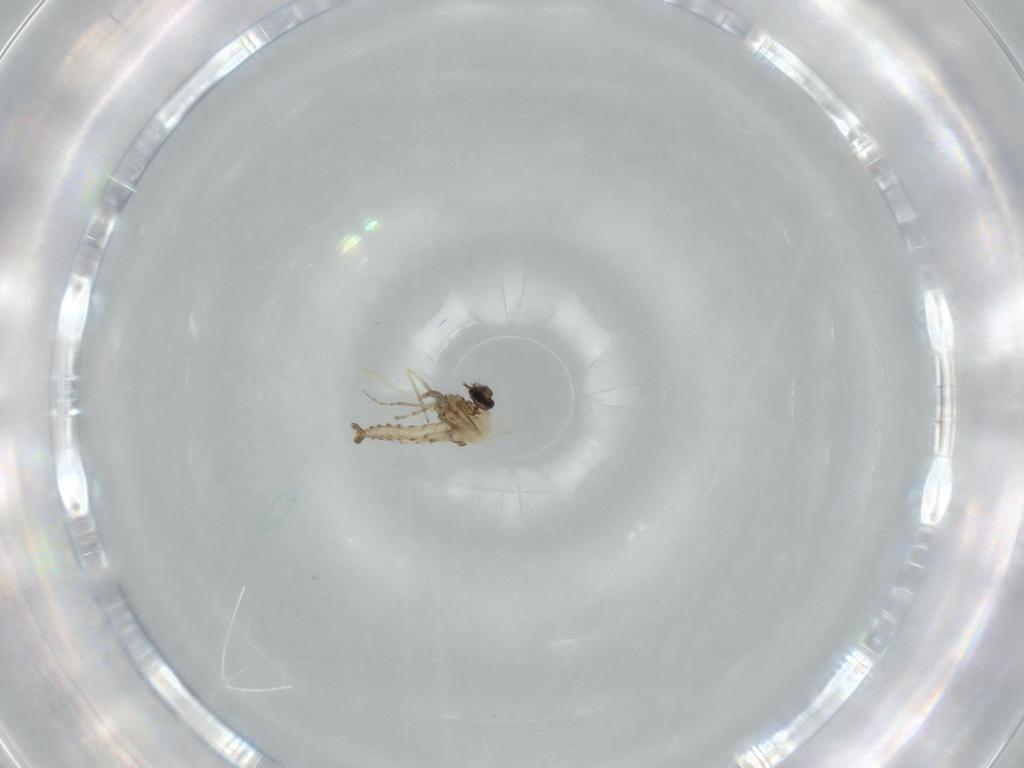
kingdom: Animalia
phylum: Arthropoda
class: Insecta
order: Diptera
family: Ceratopogonidae
